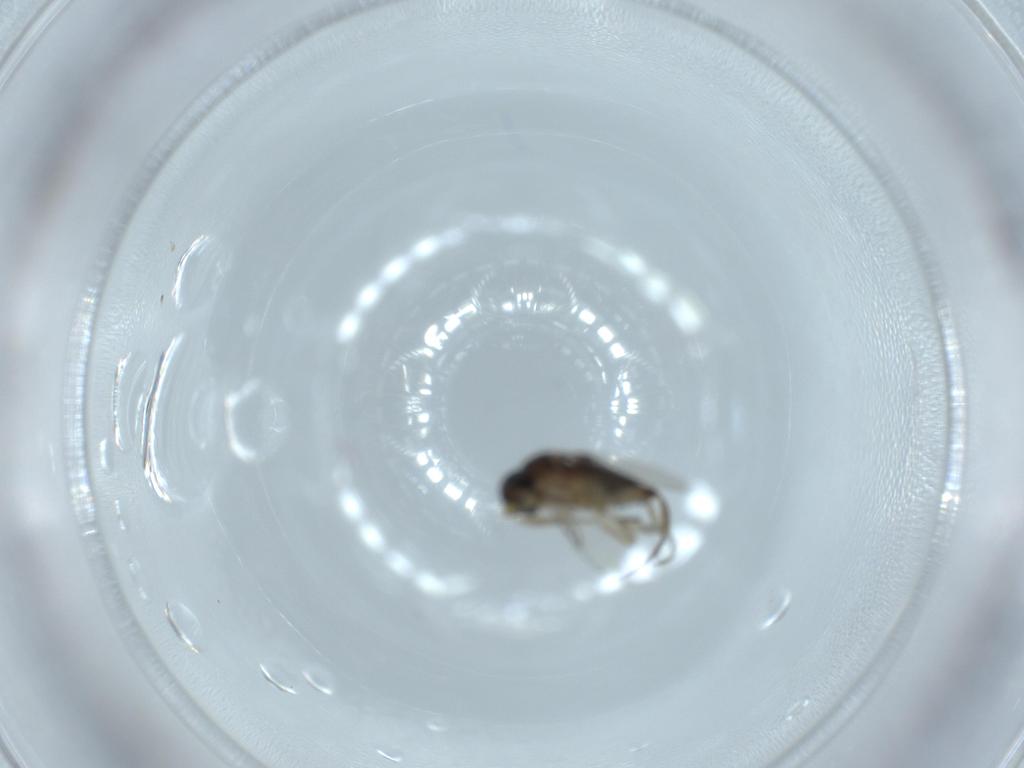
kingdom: Animalia
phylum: Arthropoda
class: Insecta
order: Diptera
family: Phoridae
